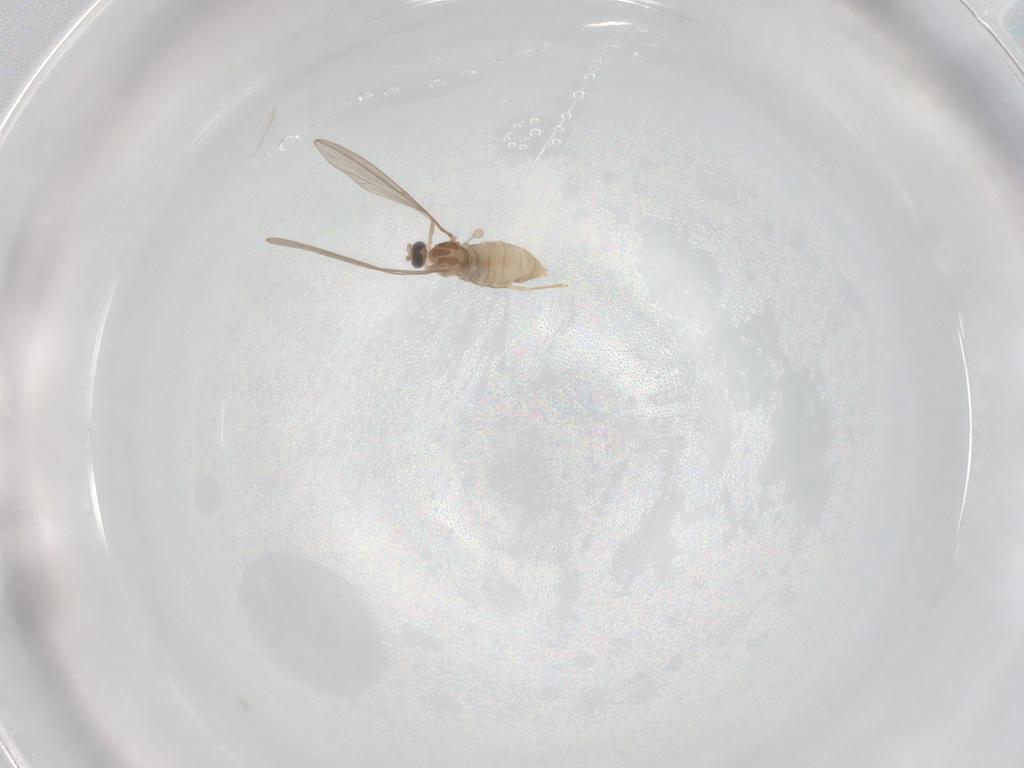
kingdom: Animalia
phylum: Arthropoda
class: Insecta
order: Diptera
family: Cecidomyiidae
